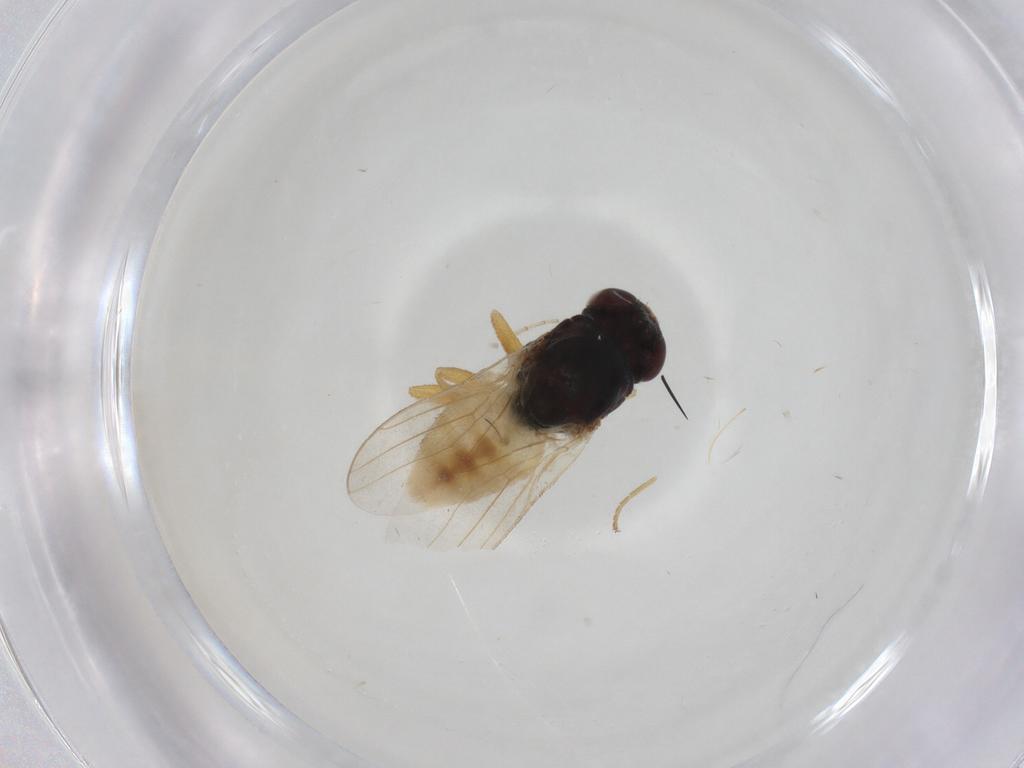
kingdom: Animalia
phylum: Arthropoda
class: Insecta
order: Diptera
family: Chloropidae
